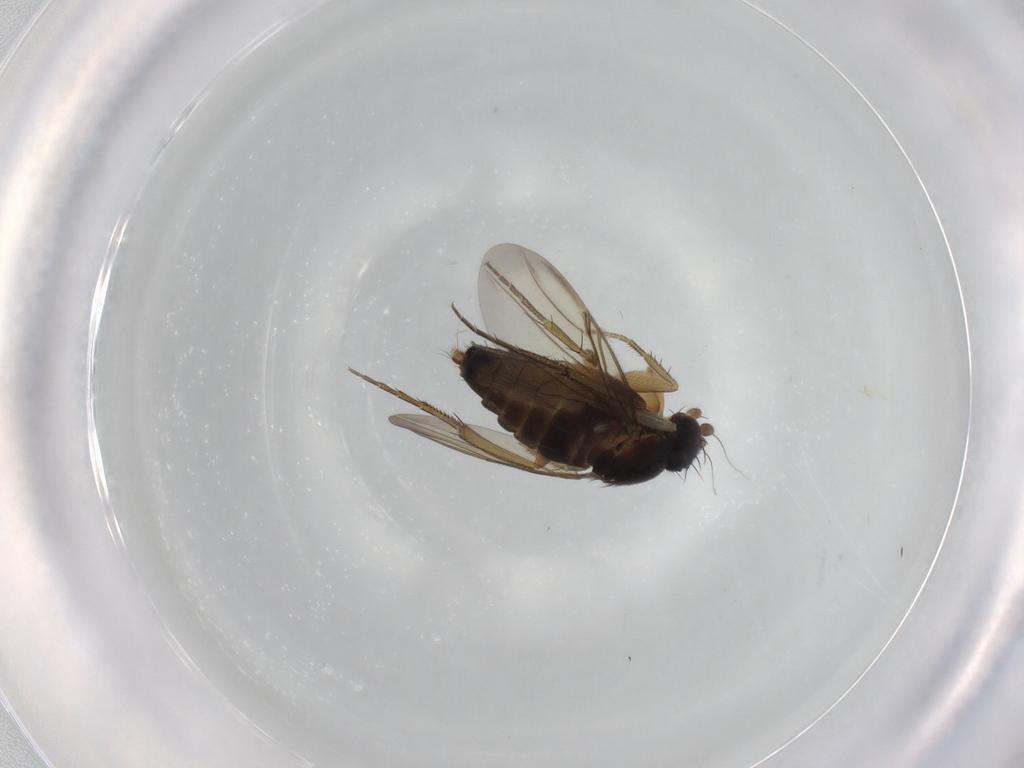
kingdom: Animalia
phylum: Arthropoda
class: Insecta
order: Diptera
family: Cecidomyiidae
